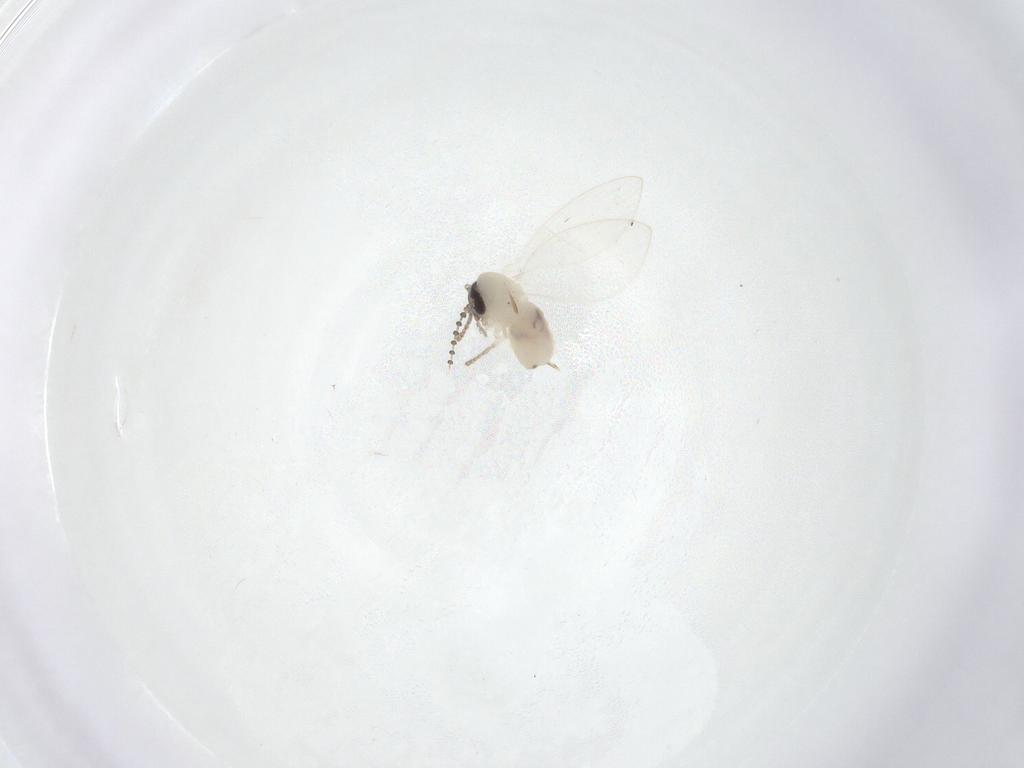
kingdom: Animalia
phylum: Arthropoda
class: Insecta
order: Diptera
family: Psychodidae
